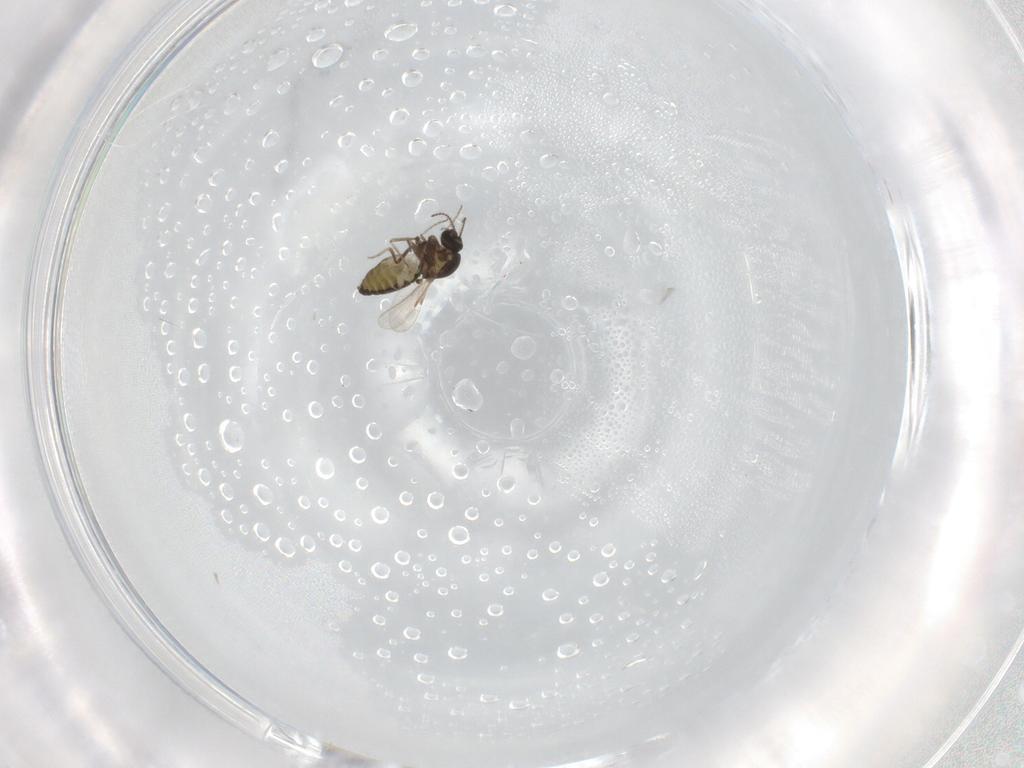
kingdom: Animalia
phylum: Arthropoda
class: Insecta
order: Diptera
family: Ceratopogonidae
